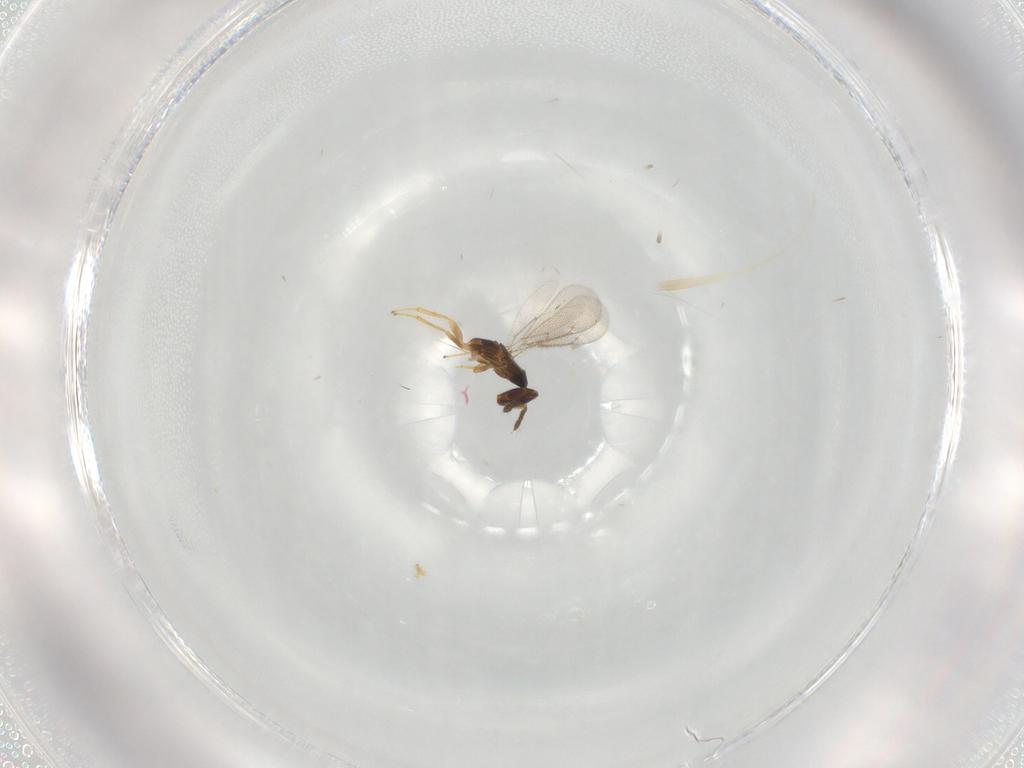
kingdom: Animalia
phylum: Arthropoda
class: Insecta
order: Hymenoptera
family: Eulophidae
